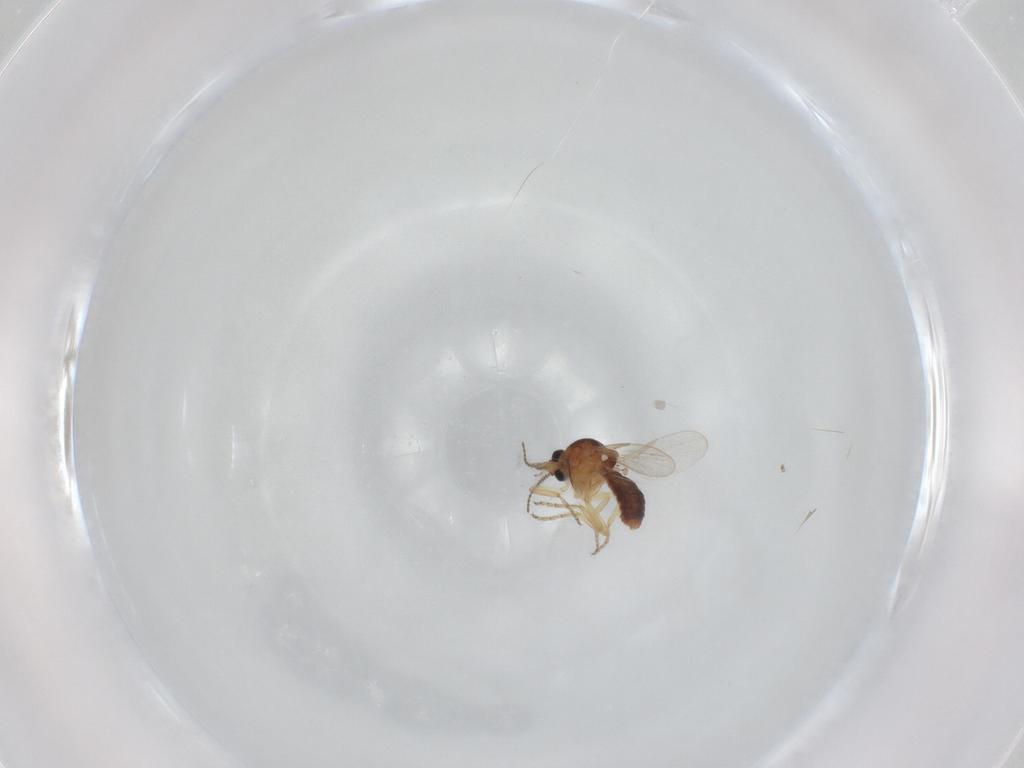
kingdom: Animalia
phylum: Arthropoda
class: Insecta
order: Diptera
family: Ceratopogonidae
